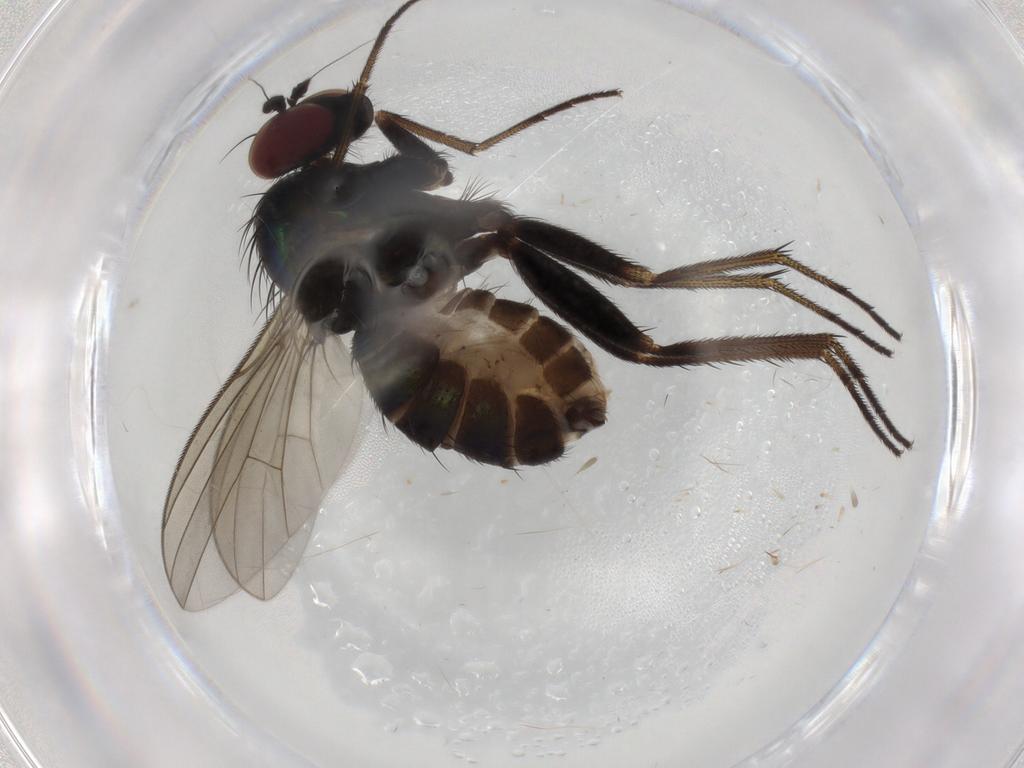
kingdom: Animalia
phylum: Arthropoda
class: Insecta
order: Diptera
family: Dolichopodidae
